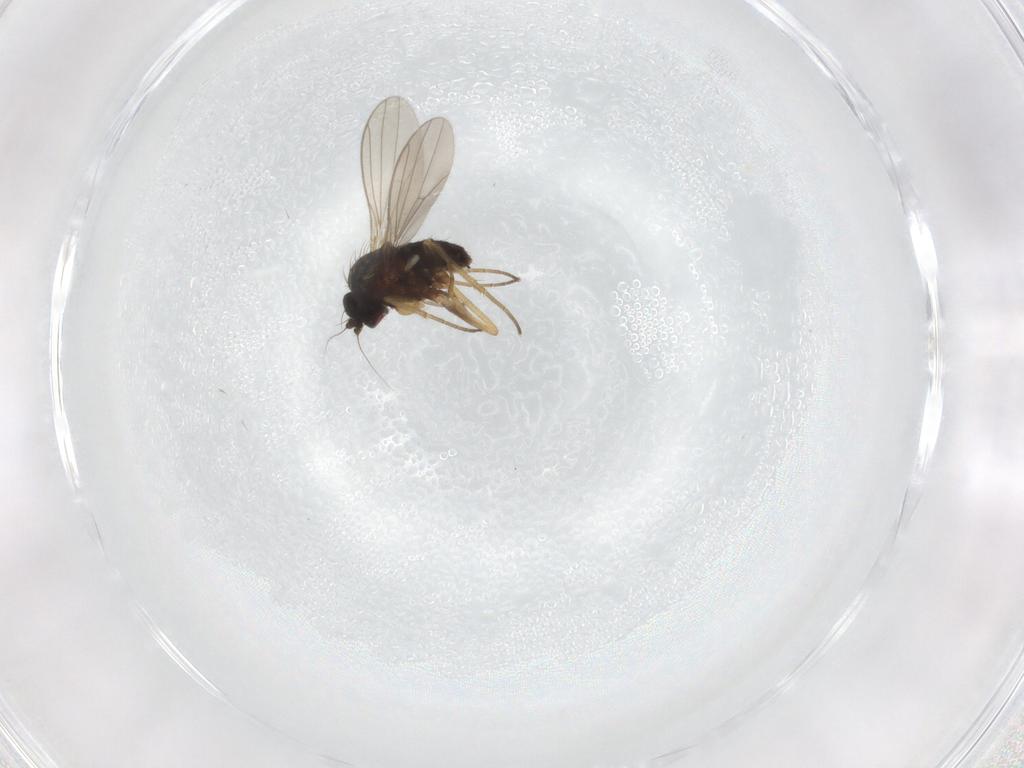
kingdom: Animalia
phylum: Arthropoda
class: Insecta
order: Diptera
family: Dolichopodidae
